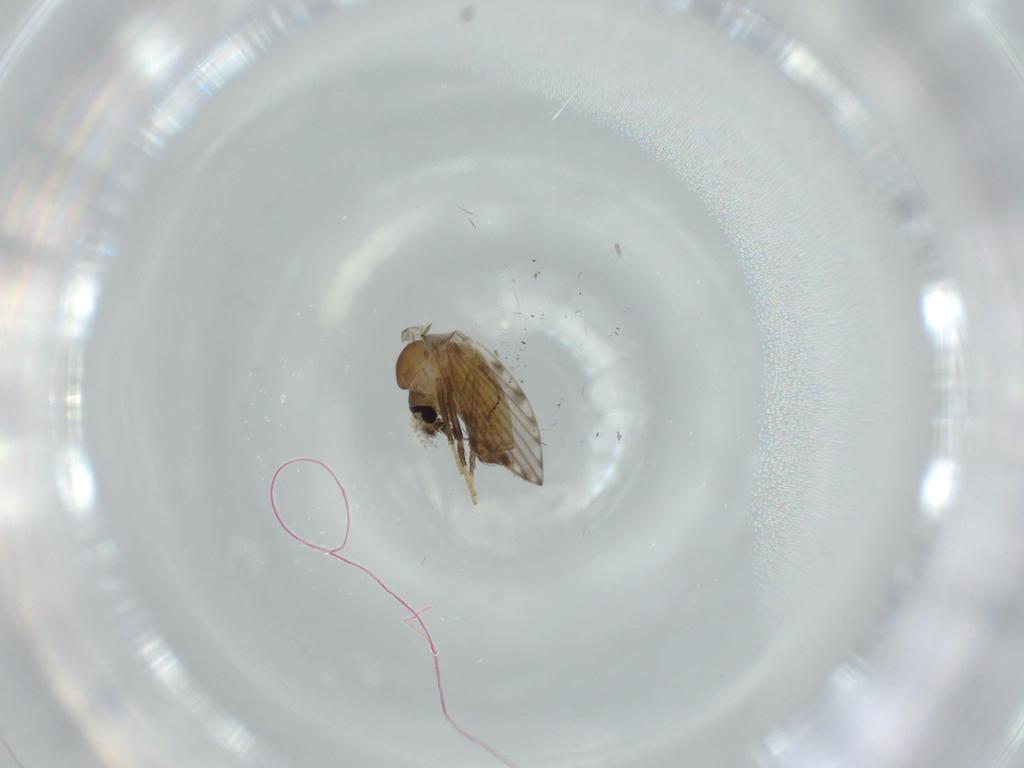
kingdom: Animalia
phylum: Arthropoda
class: Insecta
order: Diptera
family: Psychodidae
